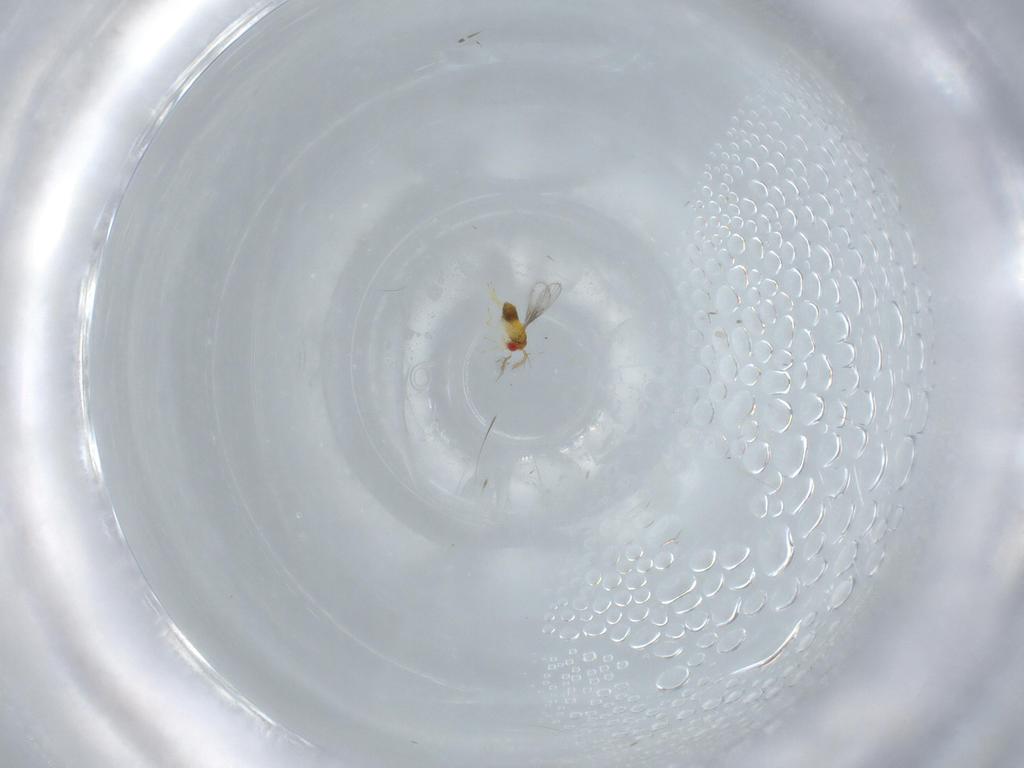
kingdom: Animalia
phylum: Arthropoda
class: Insecta
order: Hymenoptera
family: Trichogrammatidae
